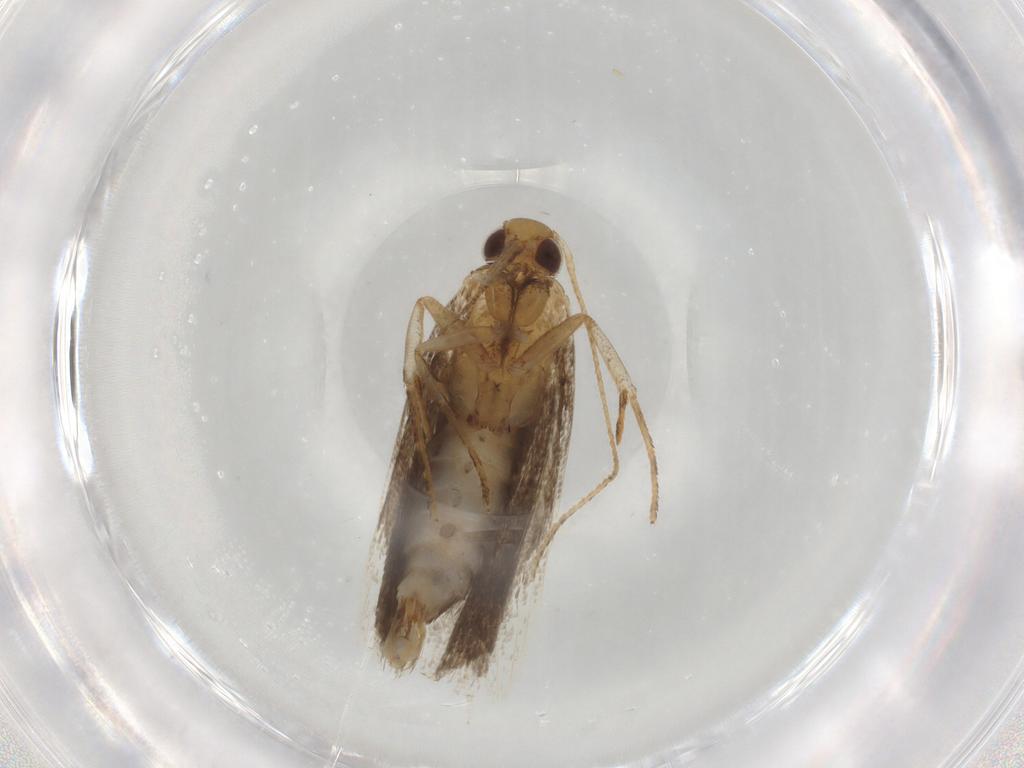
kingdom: Animalia
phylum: Arthropoda
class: Insecta
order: Lepidoptera
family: Gelechiidae
